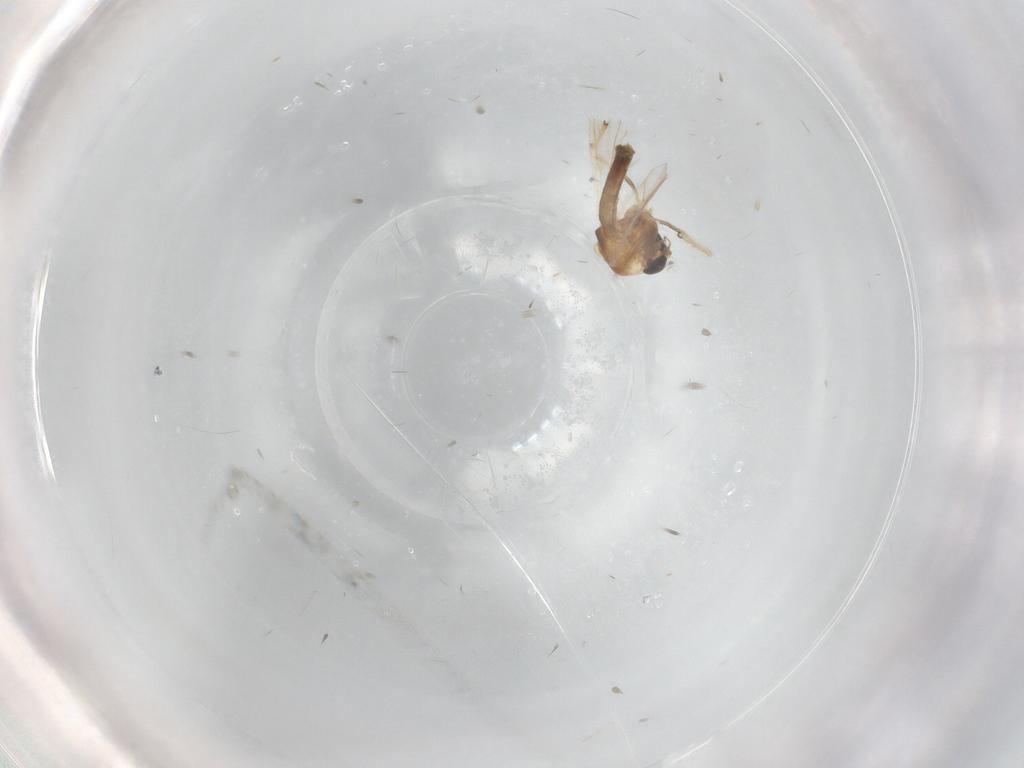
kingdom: Animalia
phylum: Arthropoda
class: Insecta
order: Diptera
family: Chironomidae
